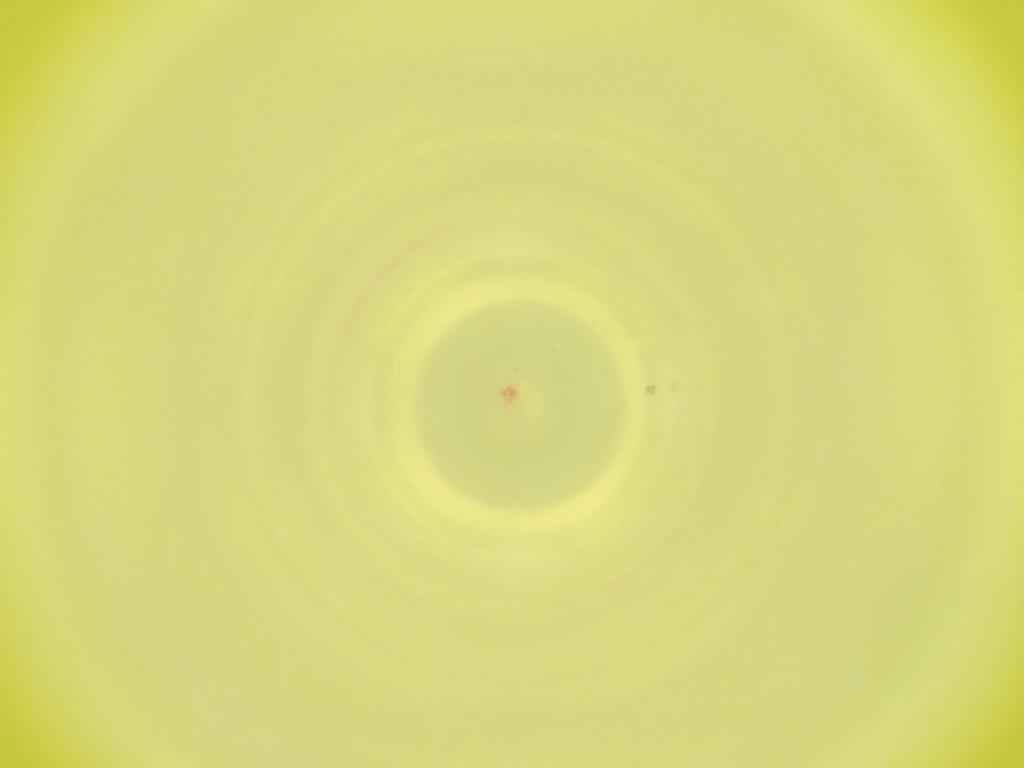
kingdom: Animalia
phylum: Arthropoda
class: Insecta
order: Diptera
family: Cecidomyiidae
